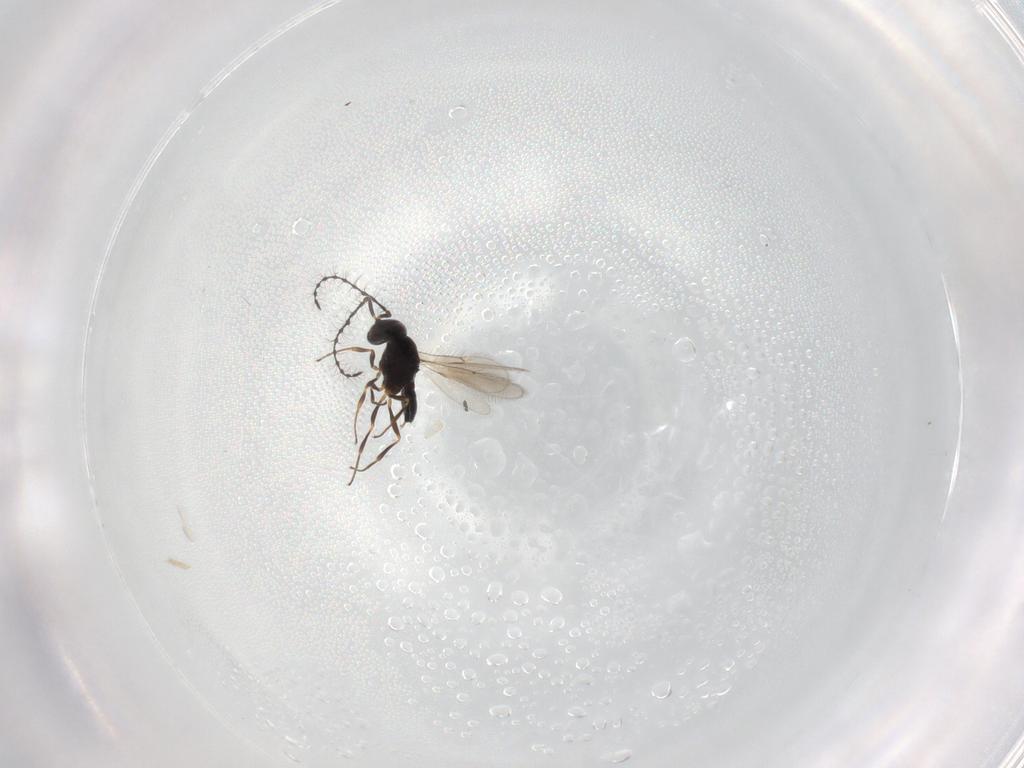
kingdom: Animalia
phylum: Arthropoda
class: Insecta
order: Hymenoptera
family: Scelionidae
